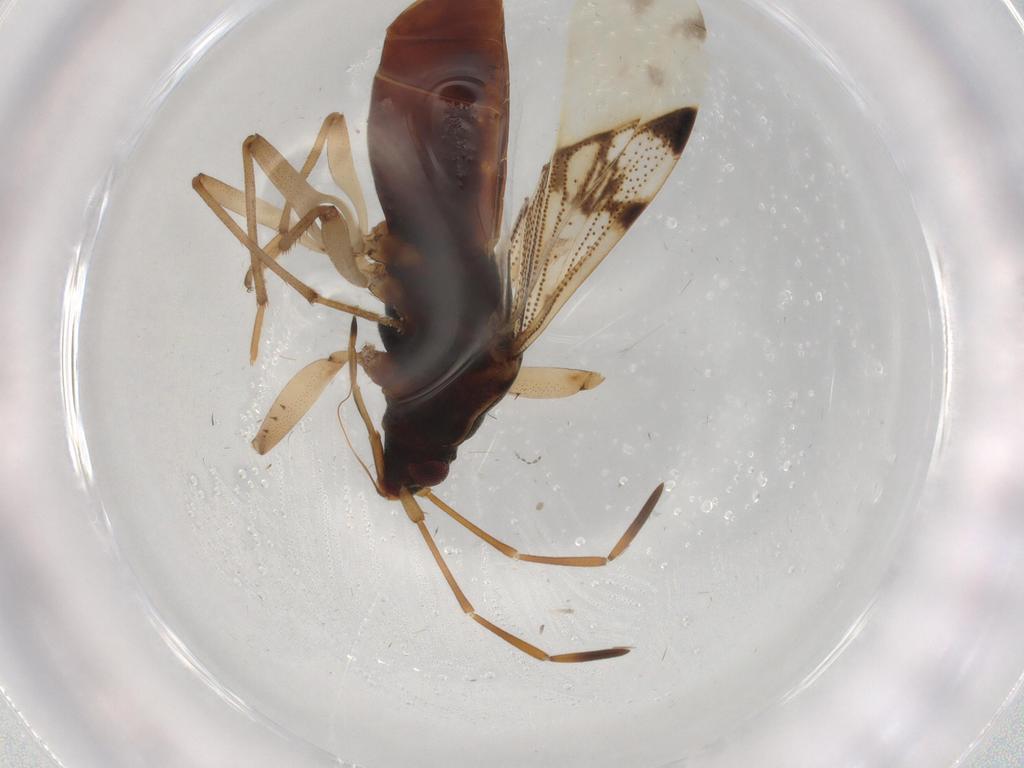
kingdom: Animalia
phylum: Arthropoda
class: Insecta
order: Hemiptera
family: Rhyparochromidae
